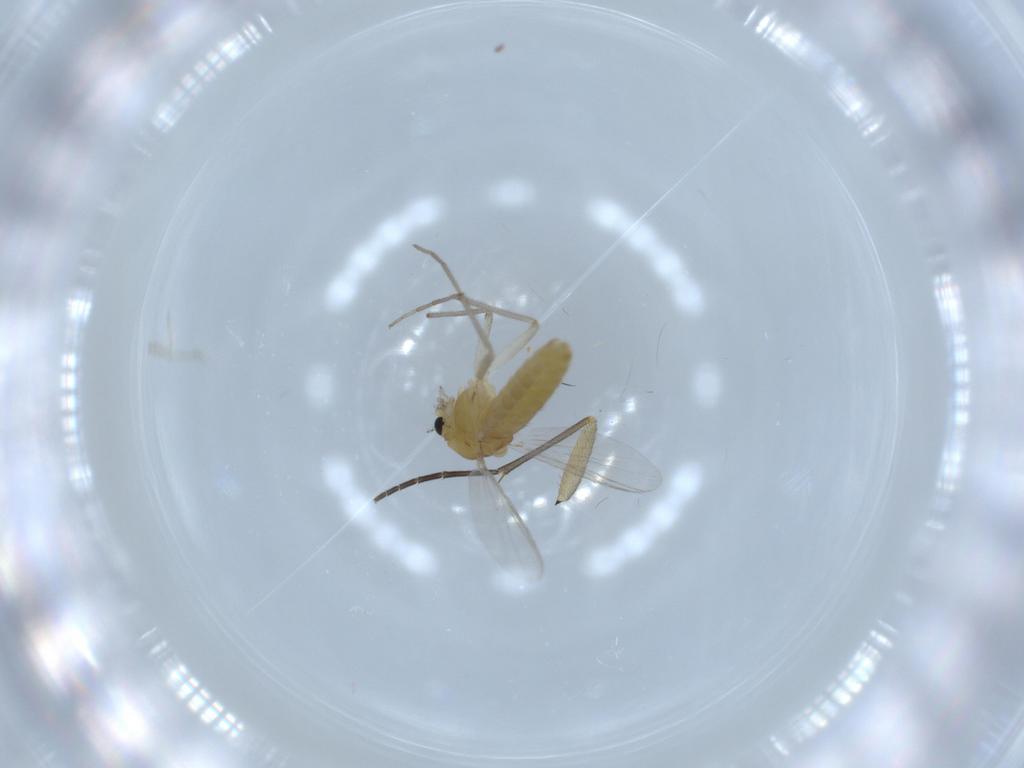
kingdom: Animalia
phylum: Arthropoda
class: Insecta
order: Diptera
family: Chironomidae
